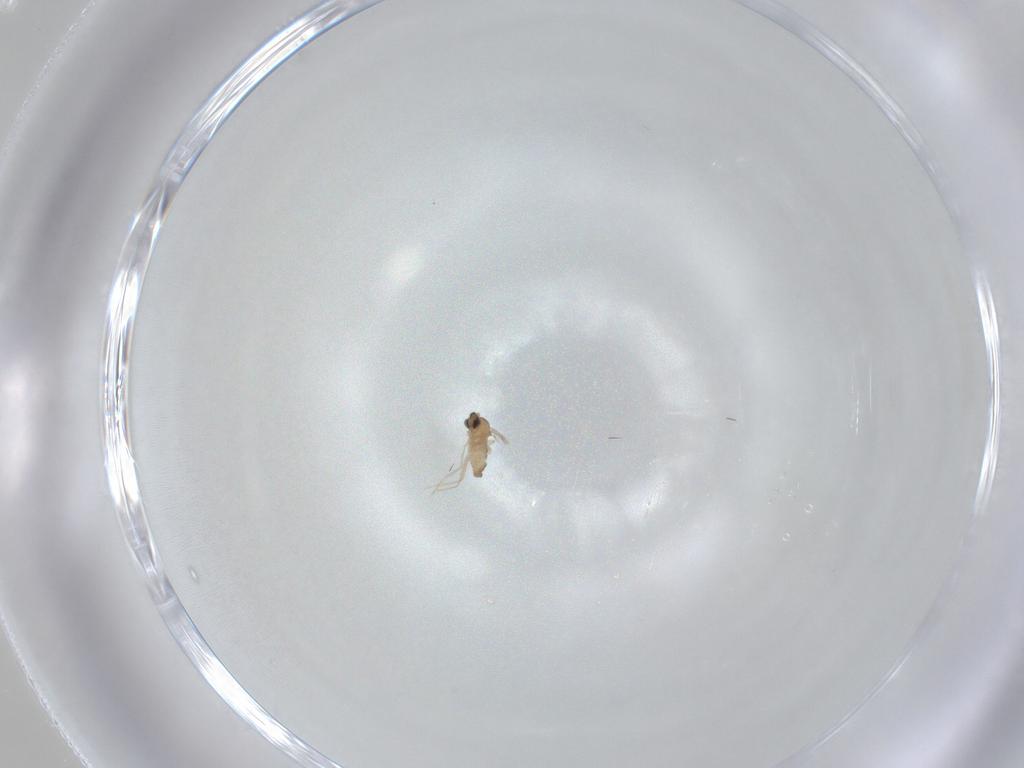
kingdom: Animalia
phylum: Arthropoda
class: Insecta
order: Diptera
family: Cecidomyiidae
